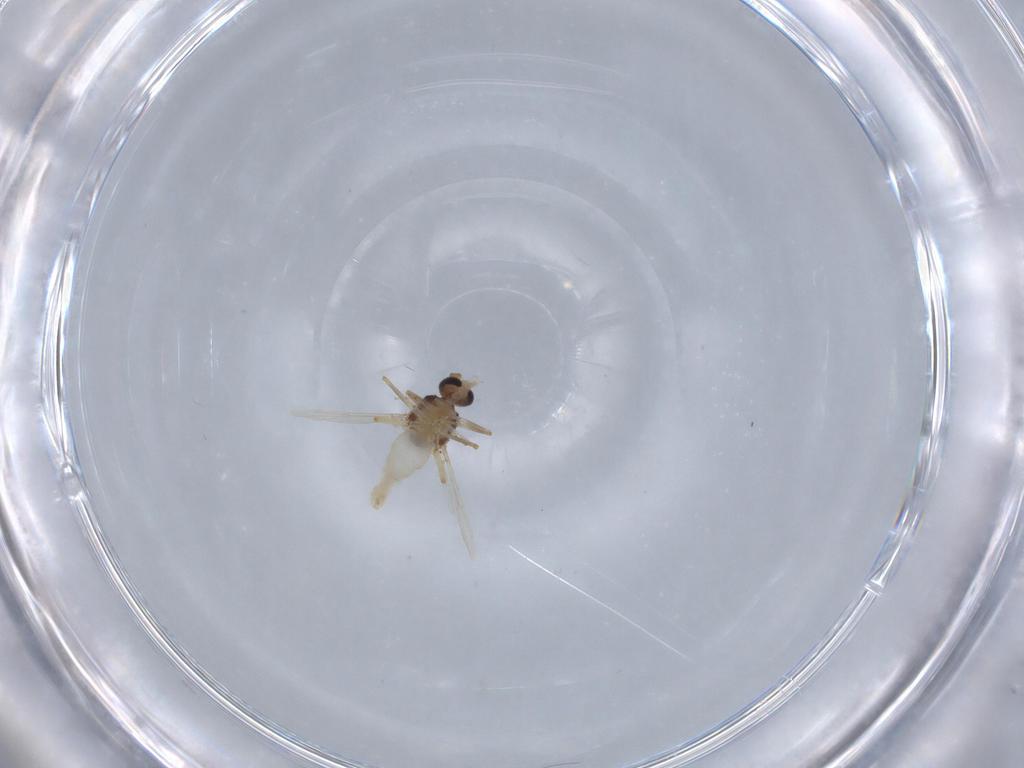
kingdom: Animalia
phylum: Arthropoda
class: Insecta
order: Diptera
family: Ceratopogonidae
